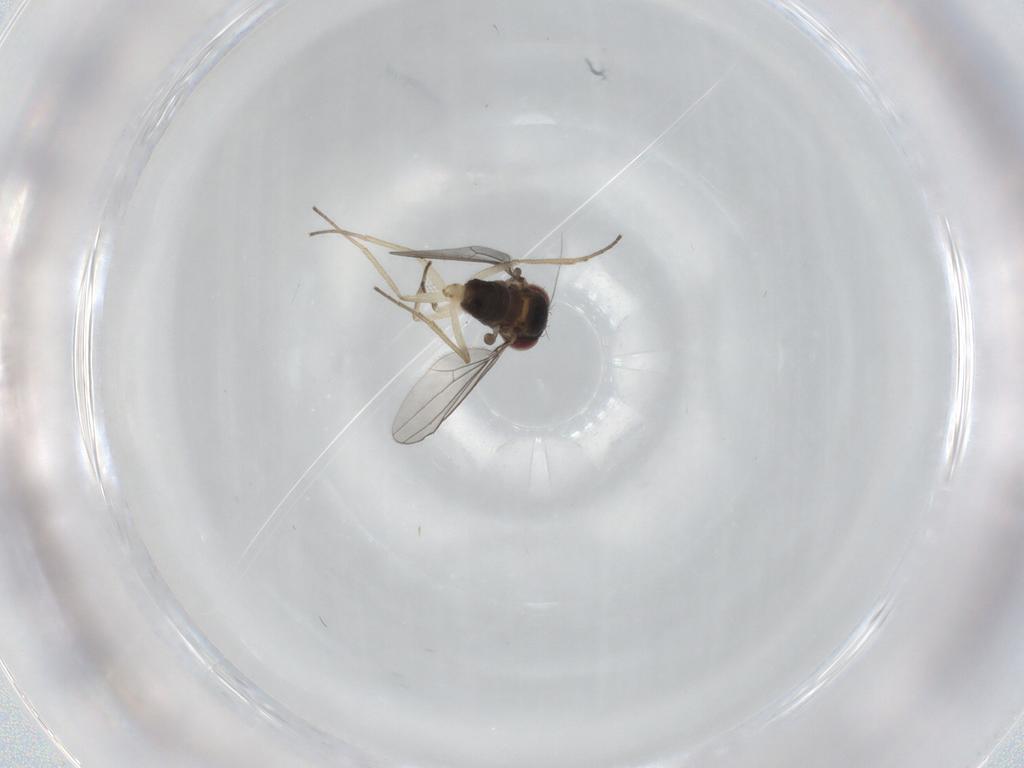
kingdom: Animalia
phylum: Arthropoda
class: Insecta
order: Diptera
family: Dolichopodidae
